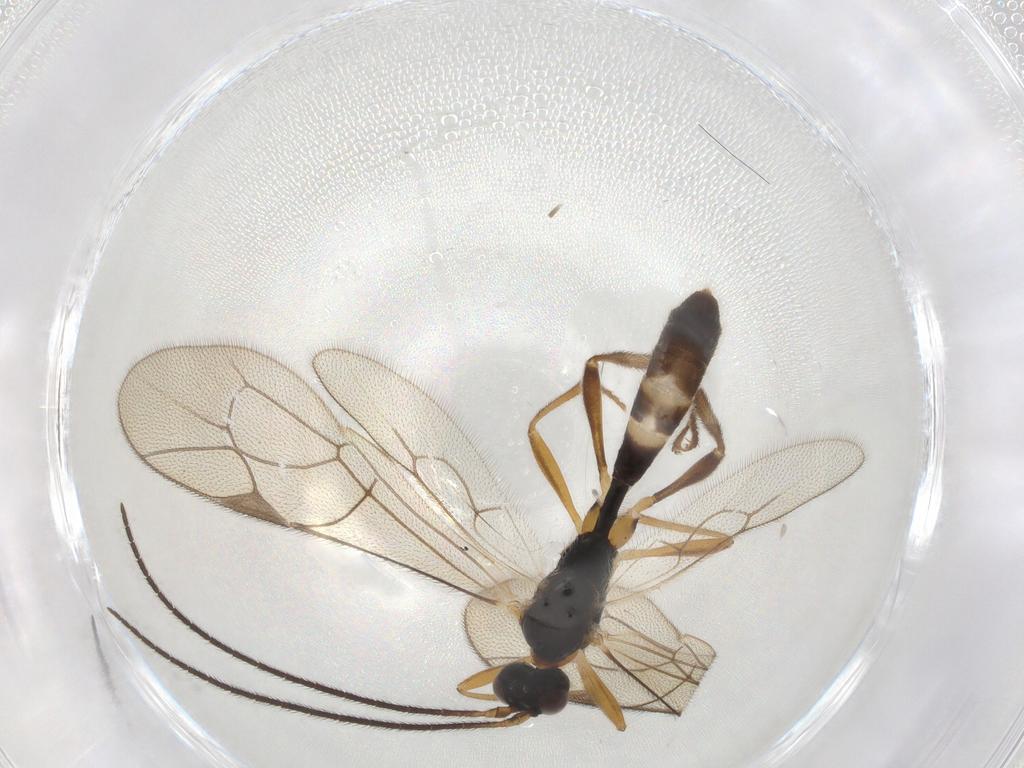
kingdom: Animalia
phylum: Arthropoda
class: Insecta
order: Hymenoptera
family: Ichneumonidae
